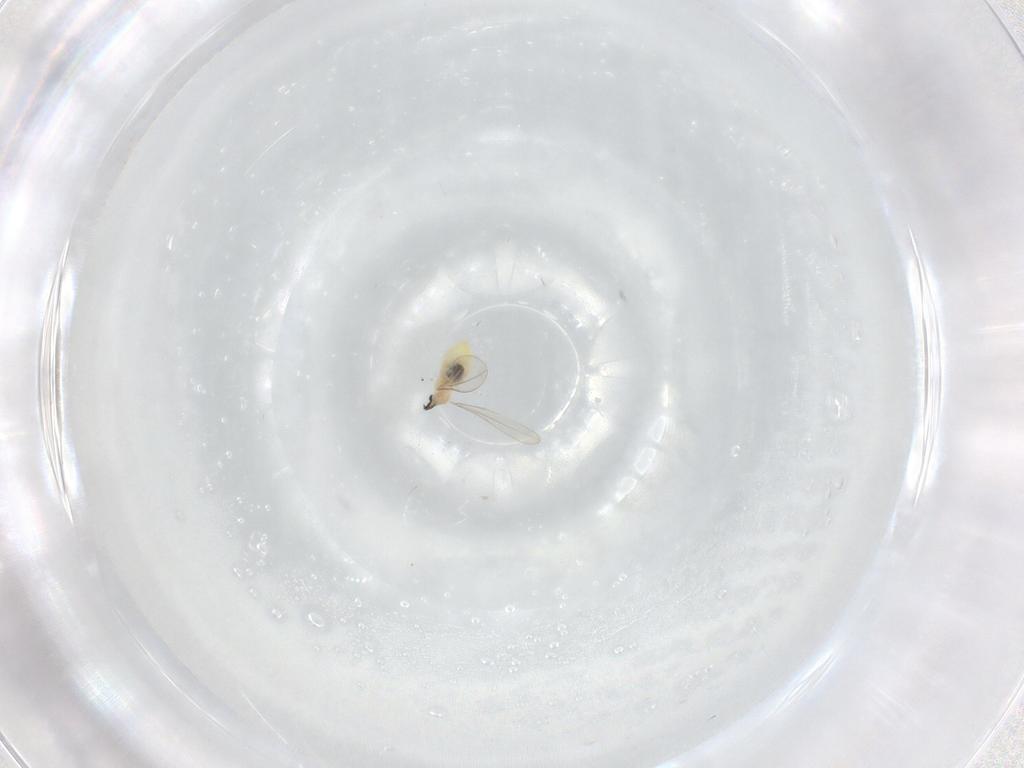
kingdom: Animalia
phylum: Arthropoda
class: Insecta
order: Diptera
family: Cecidomyiidae
